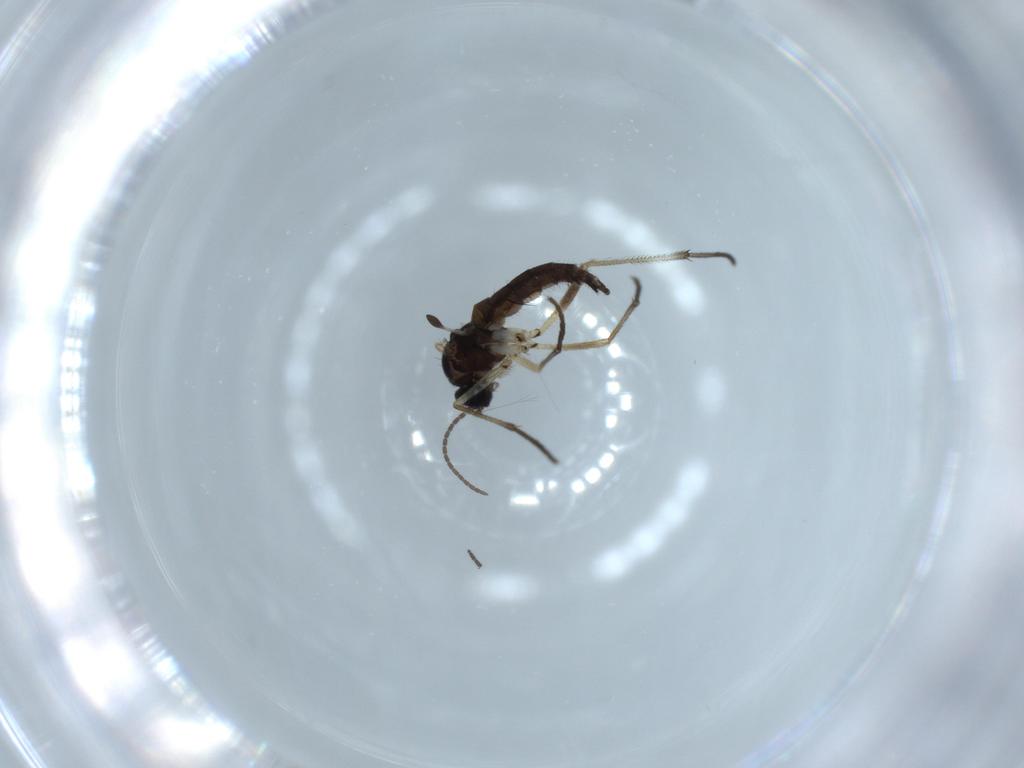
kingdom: Animalia
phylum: Arthropoda
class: Insecta
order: Diptera
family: Sciaridae
